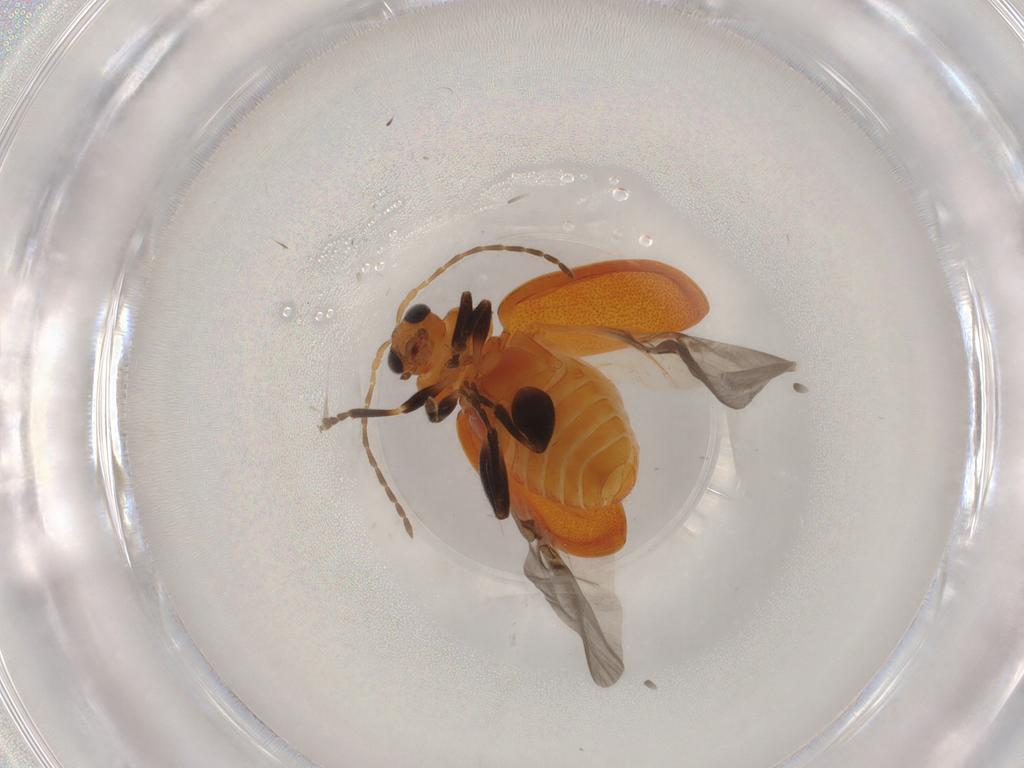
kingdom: Animalia
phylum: Arthropoda
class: Insecta
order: Coleoptera
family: Chrysomelidae
